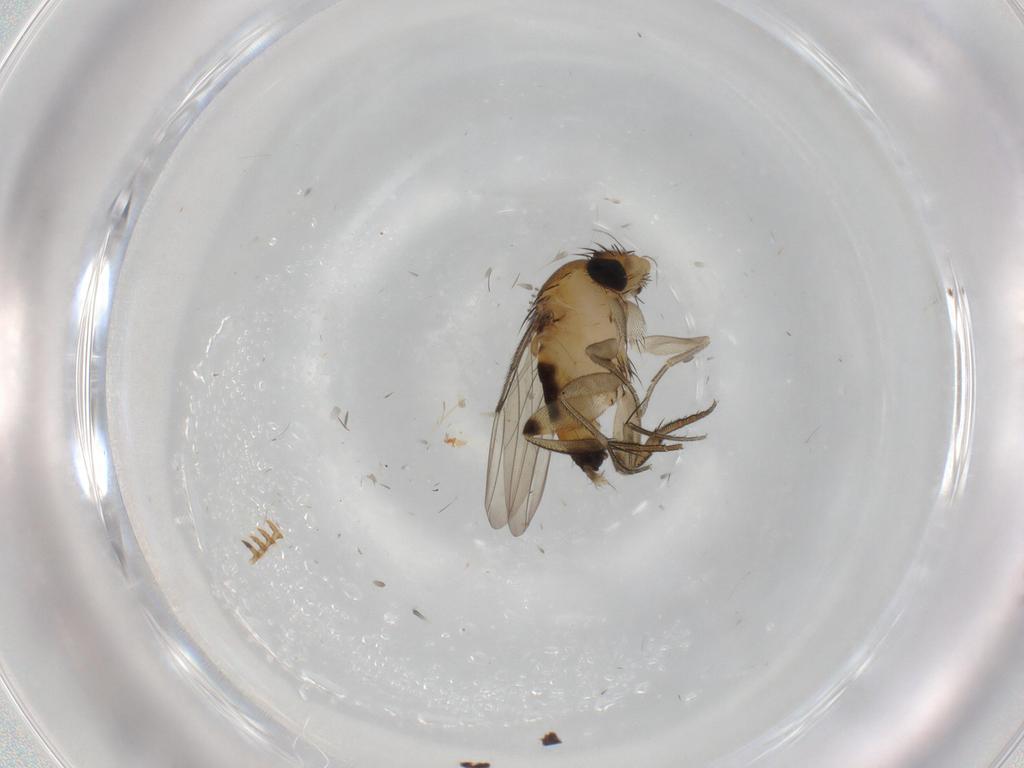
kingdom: Animalia
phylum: Arthropoda
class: Insecta
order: Diptera
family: Phoridae
